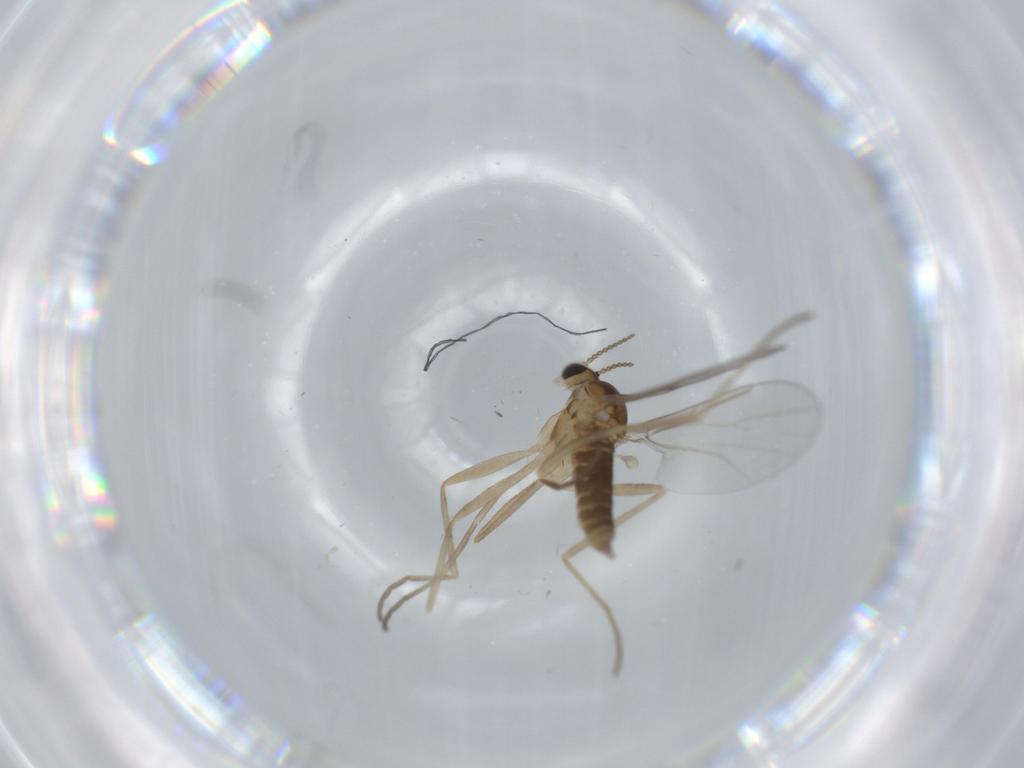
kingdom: Animalia
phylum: Arthropoda
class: Insecta
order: Diptera
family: Cecidomyiidae
